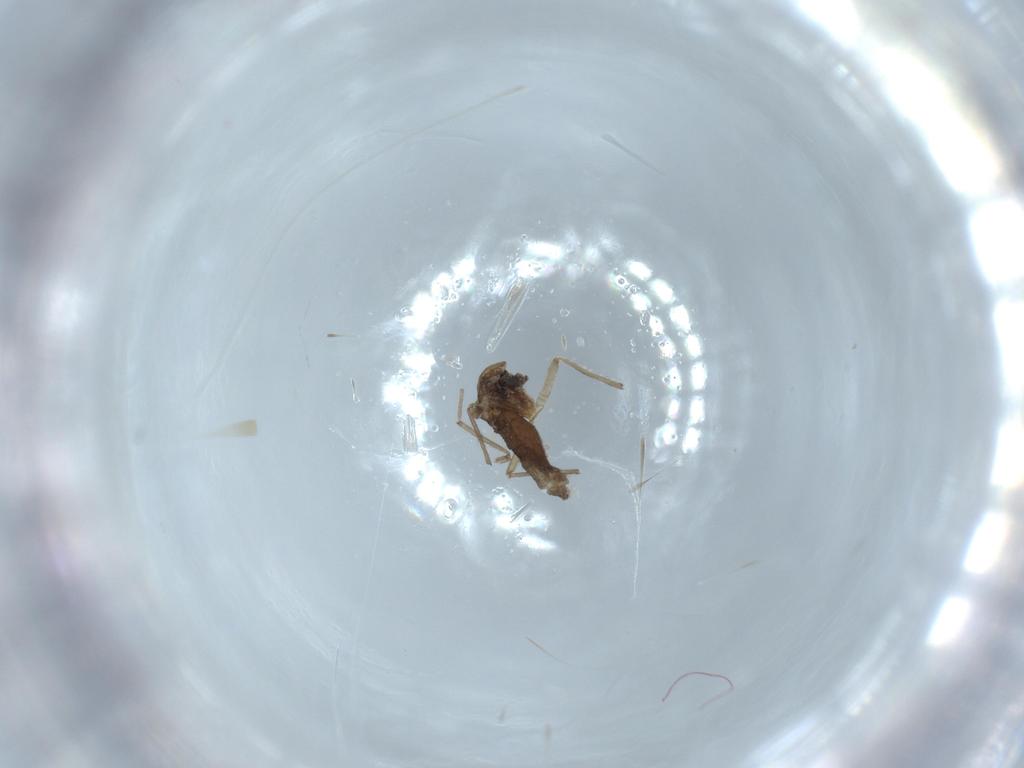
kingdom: Animalia
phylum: Arthropoda
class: Insecta
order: Diptera
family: Chironomidae
